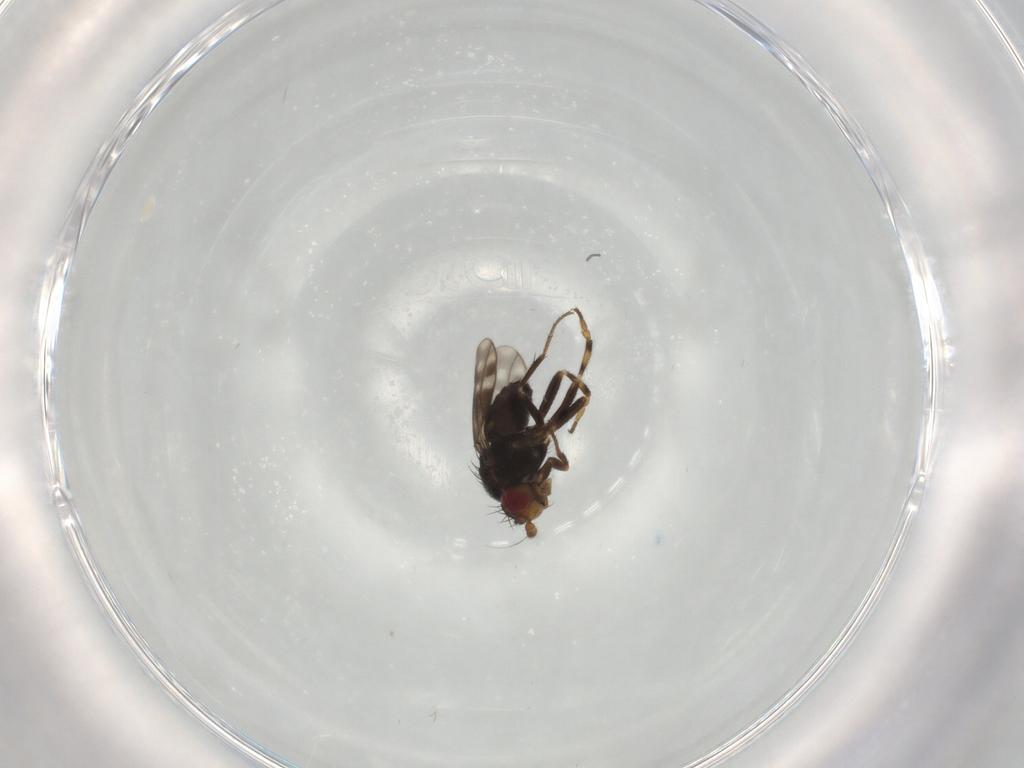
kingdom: Animalia
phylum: Arthropoda
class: Insecta
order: Diptera
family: Sphaeroceridae
